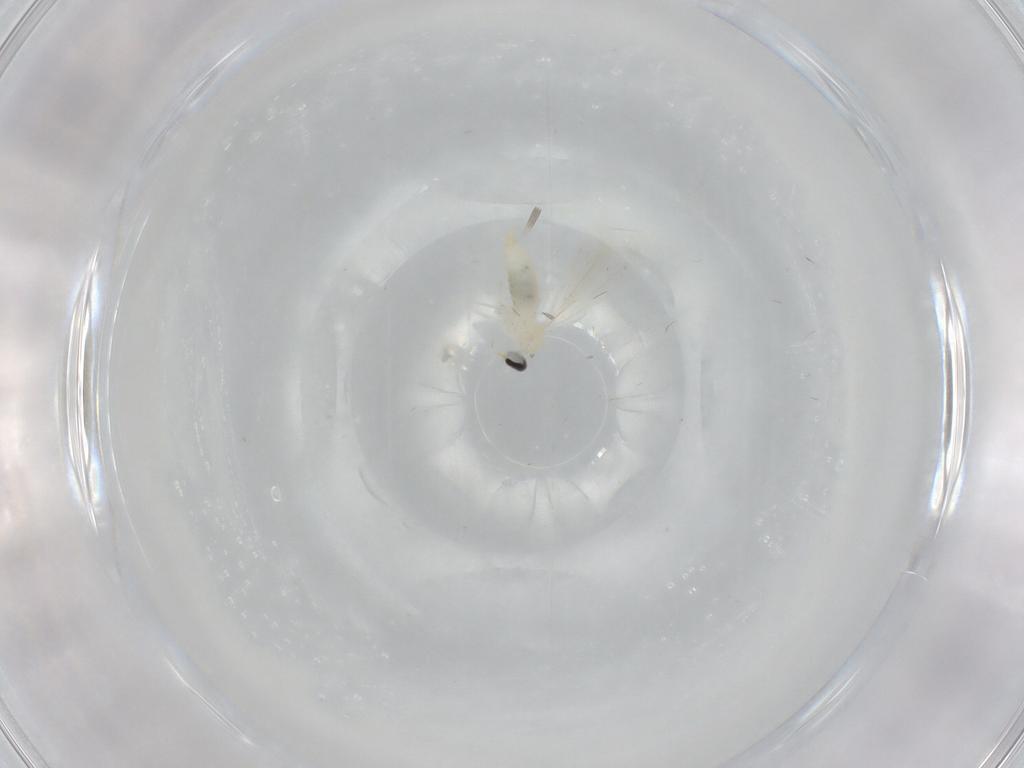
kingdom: Animalia
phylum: Arthropoda
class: Insecta
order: Diptera
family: Cecidomyiidae
